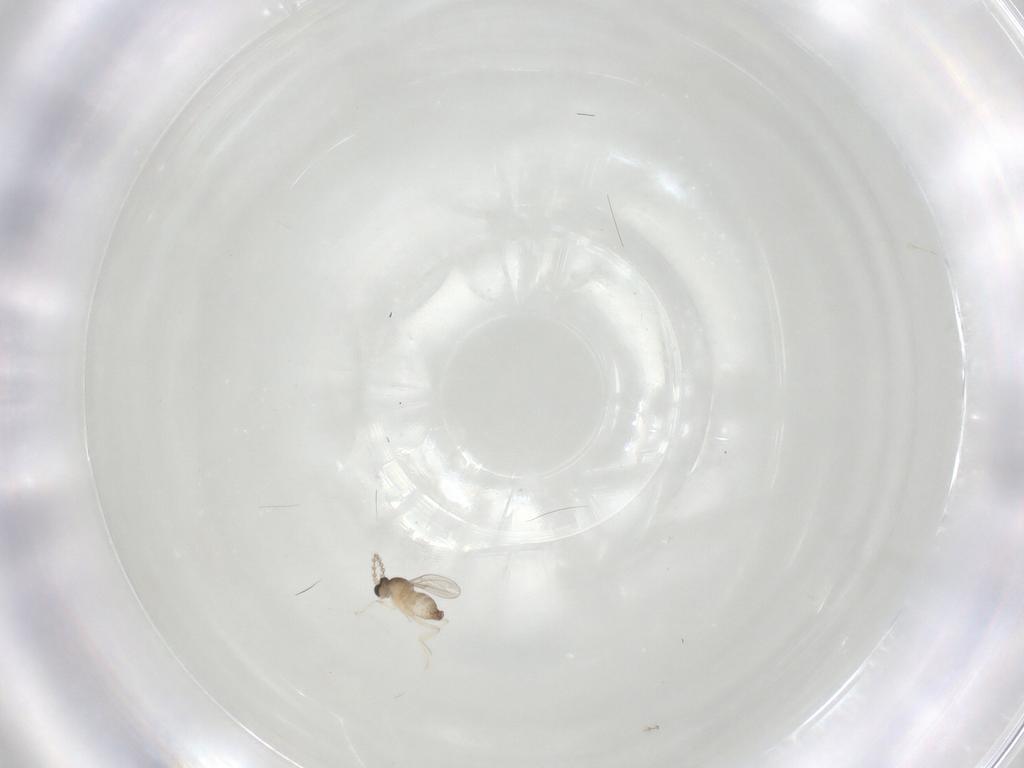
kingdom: Animalia
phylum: Arthropoda
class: Insecta
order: Diptera
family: Cecidomyiidae
